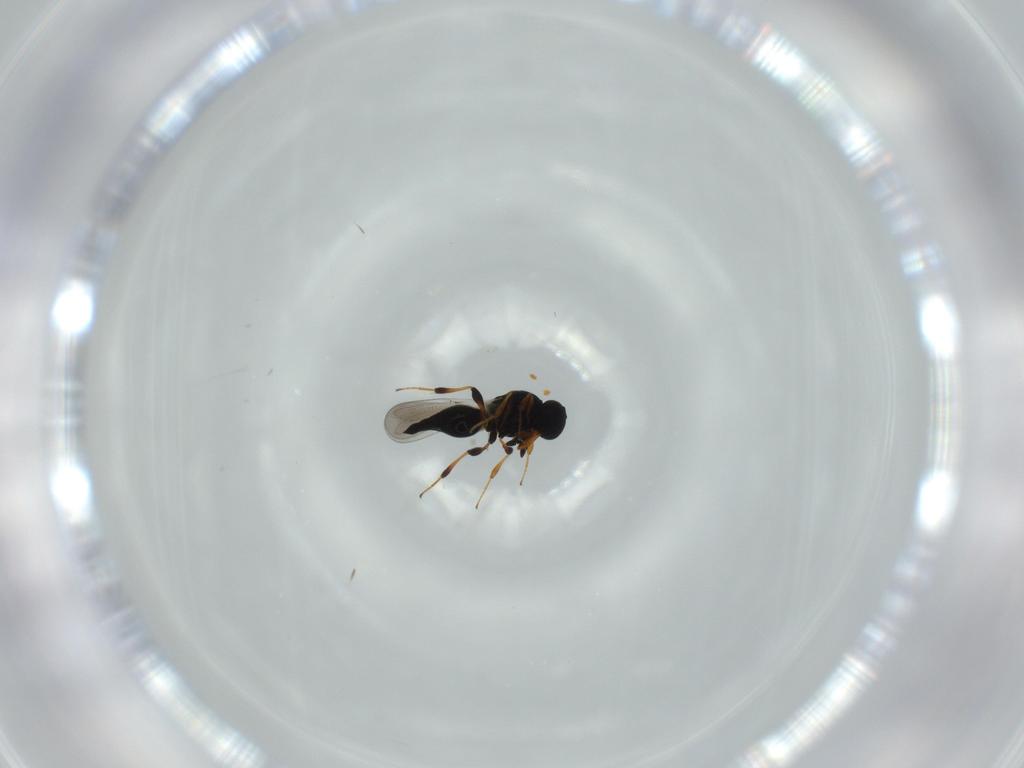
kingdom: Animalia
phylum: Arthropoda
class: Insecta
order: Hymenoptera
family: Platygastridae
